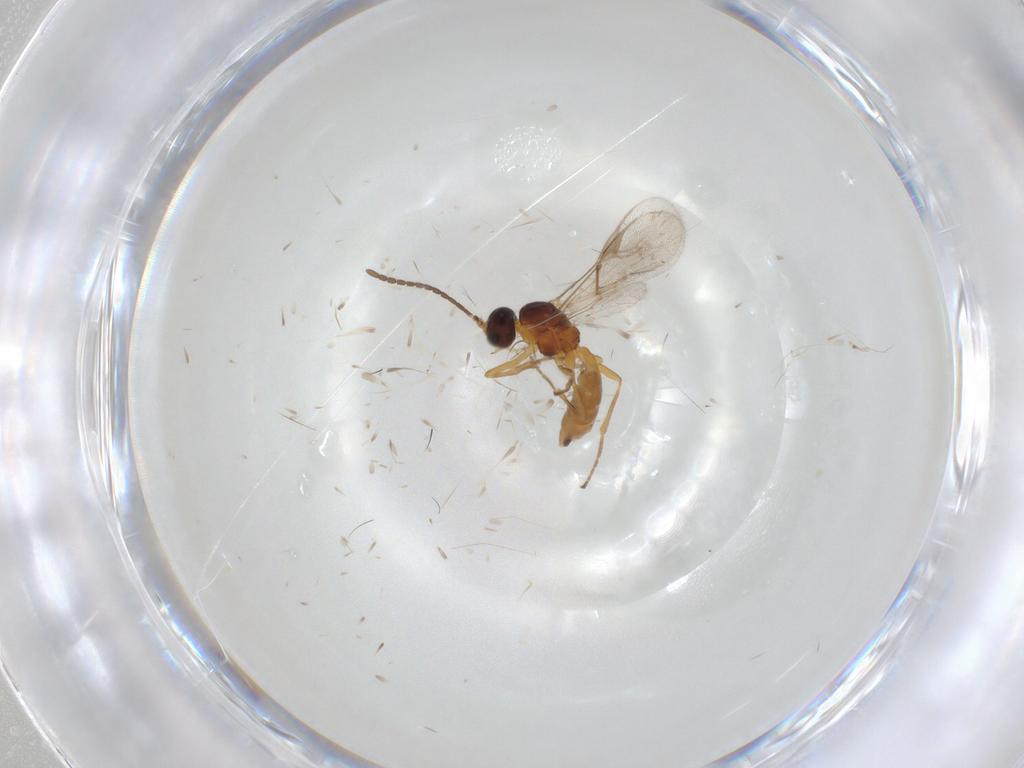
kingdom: Animalia
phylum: Arthropoda
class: Insecta
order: Hymenoptera
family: Braconidae
